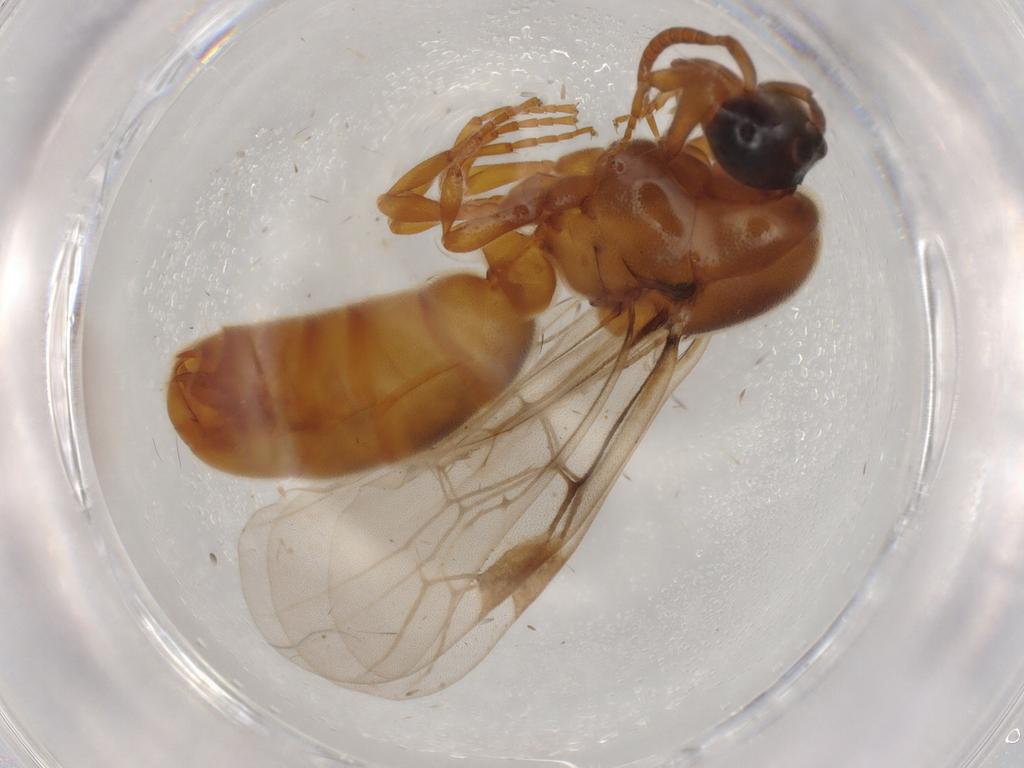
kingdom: Animalia
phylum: Arthropoda
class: Insecta
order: Hymenoptera
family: Formicidae
